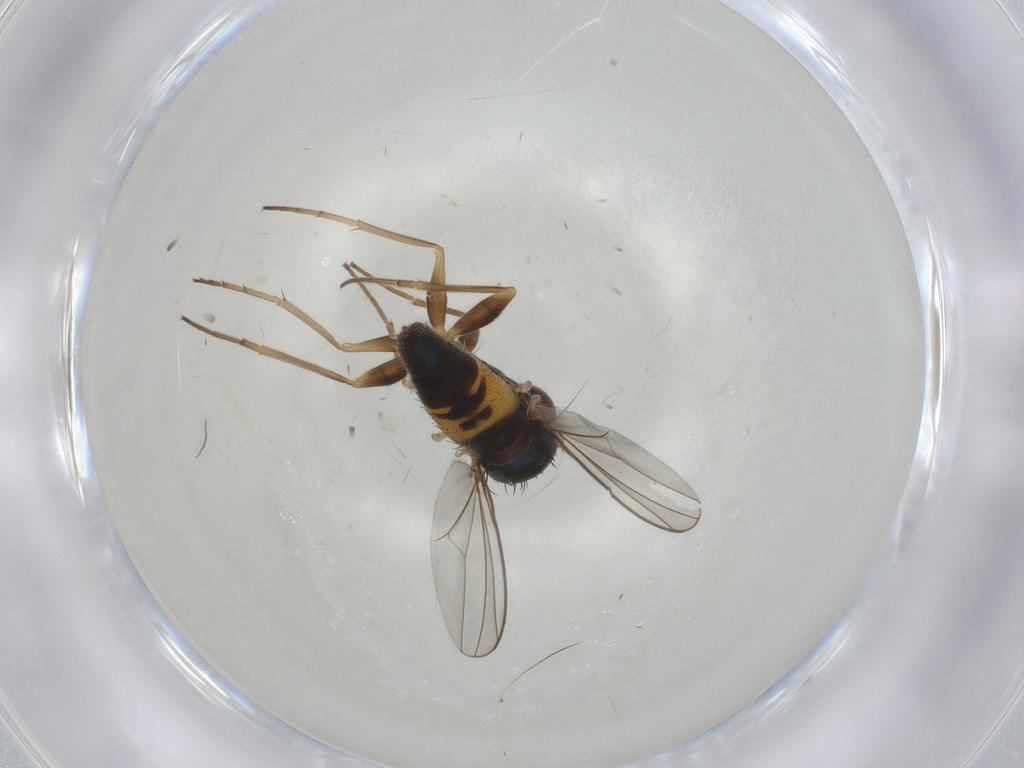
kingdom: Animalia
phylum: Arthropoda
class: Insecta
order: Diptera
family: Dolichopodidae
